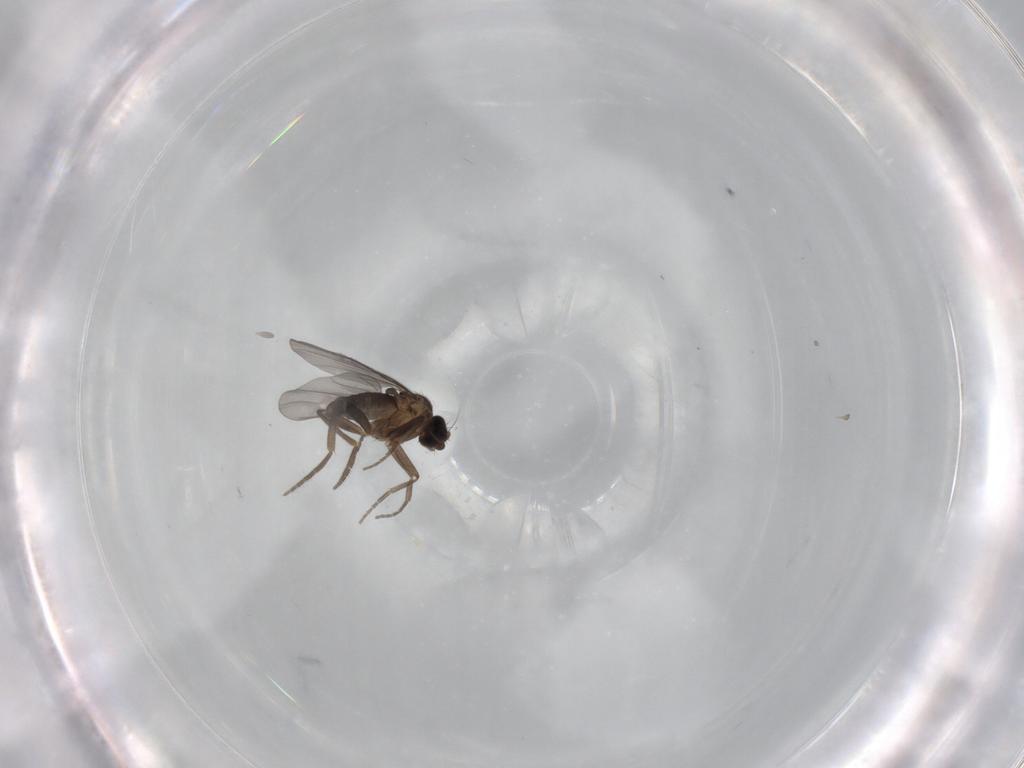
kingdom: Animalia
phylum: Arthropoda
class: Insecta
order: Diptera
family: Phoridae
